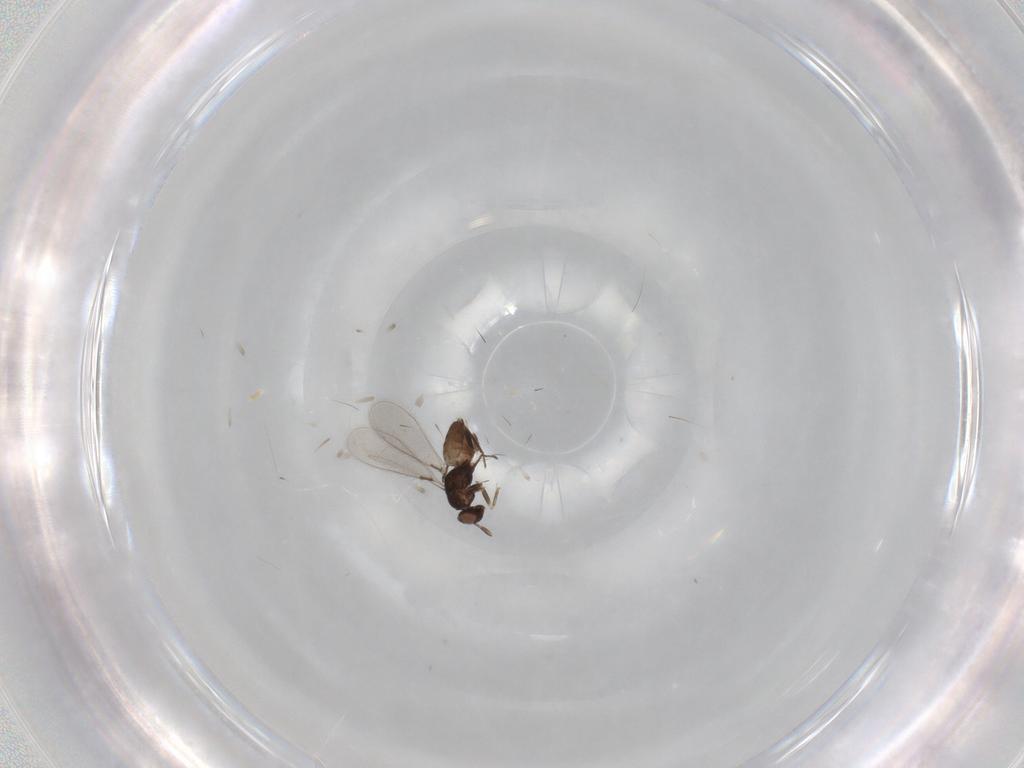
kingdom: Animalia
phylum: Arthropoda
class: Insecta
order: Hymenoptera
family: Mymaridae
